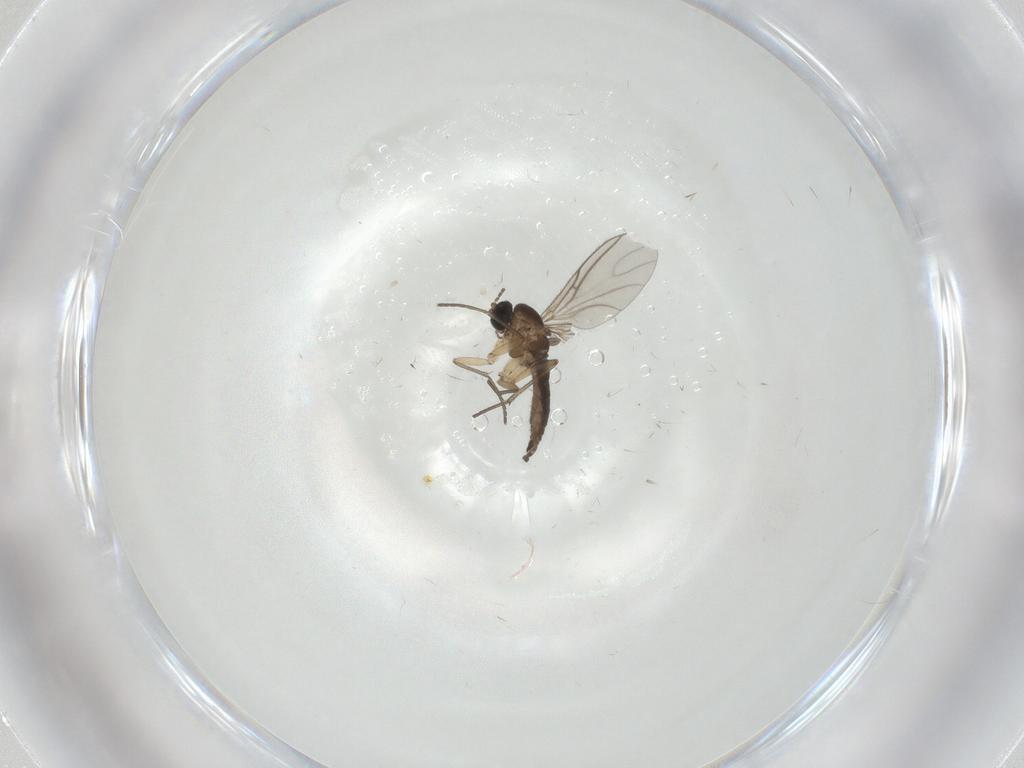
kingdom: Animalia
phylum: Arthropoda
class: Insecta
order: Diptera
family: Sciaridae
